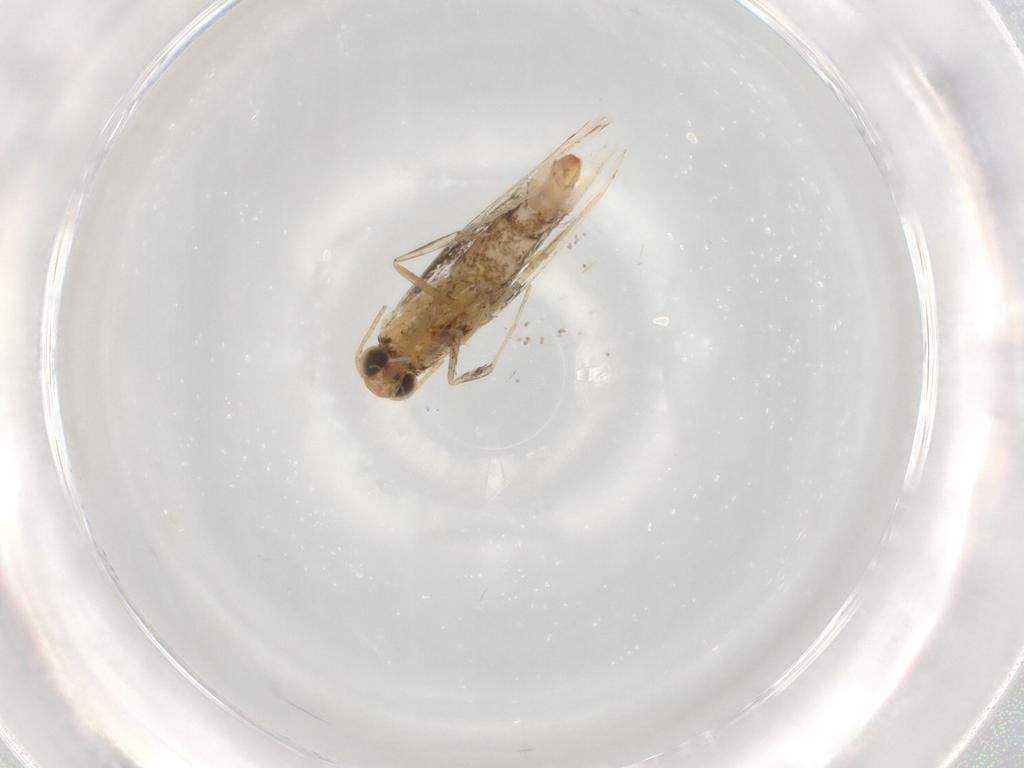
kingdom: Animalia
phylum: Arthropoda
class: Insecta
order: Lepidoptera
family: Gracillariidae
